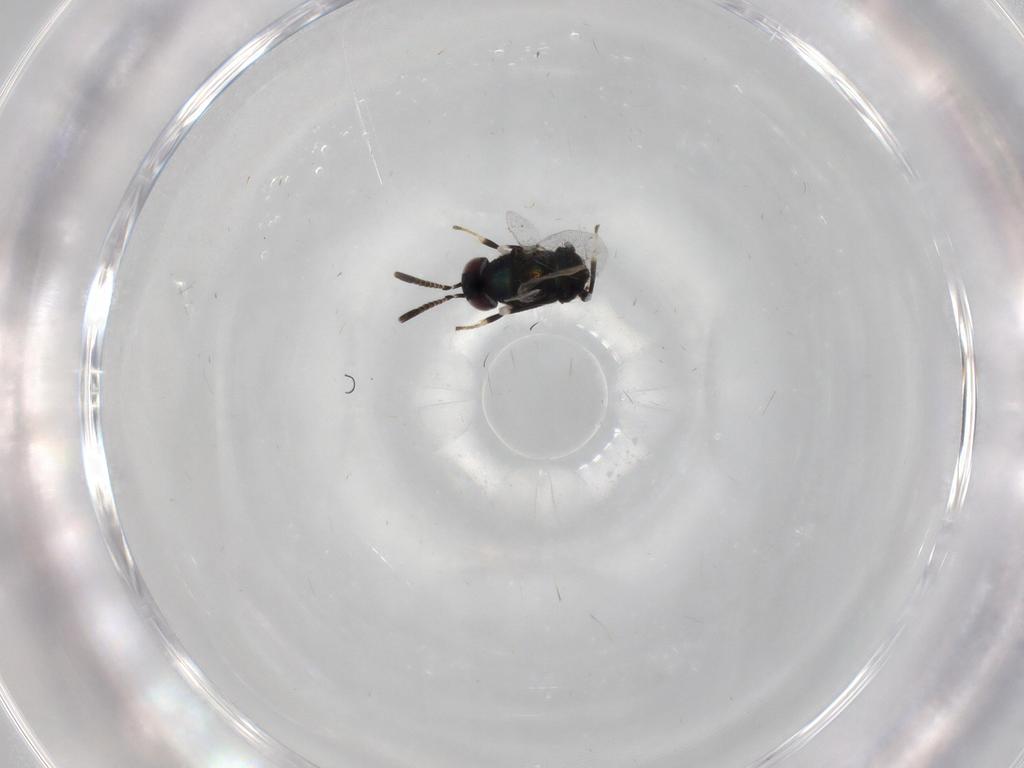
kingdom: Animalia
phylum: Arthropoda
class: Insecta
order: Hymenoptera
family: Encyrtidae
